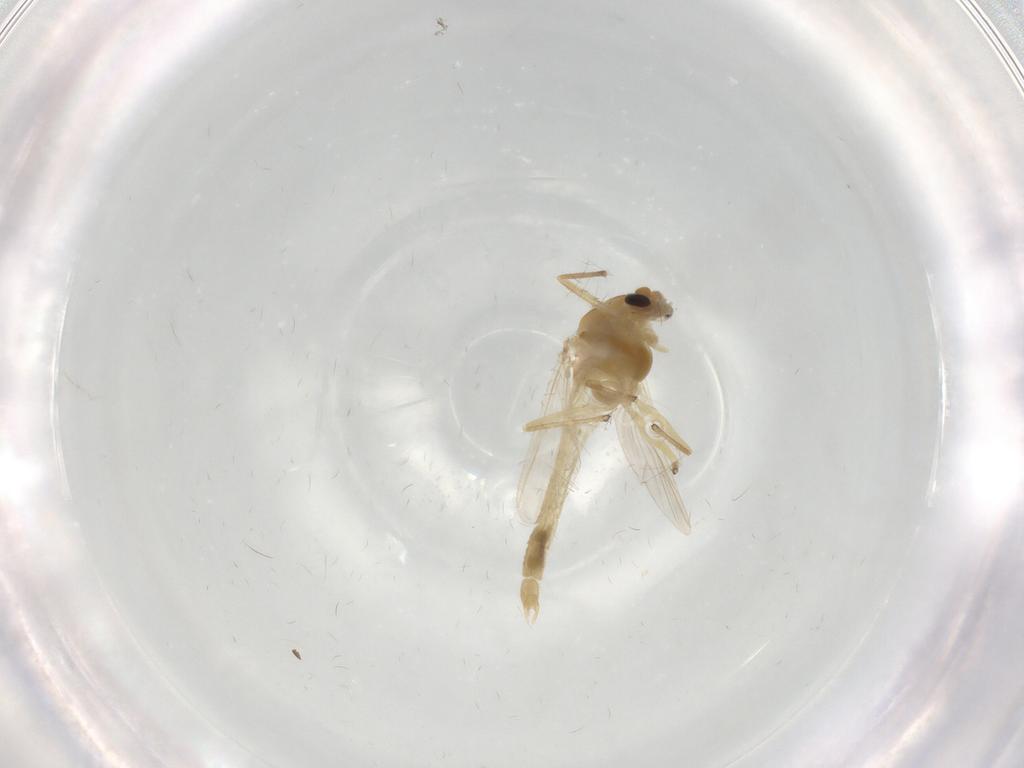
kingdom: Animalia
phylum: Arthropoda
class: Insecta
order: Diptera
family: Chironomidae
